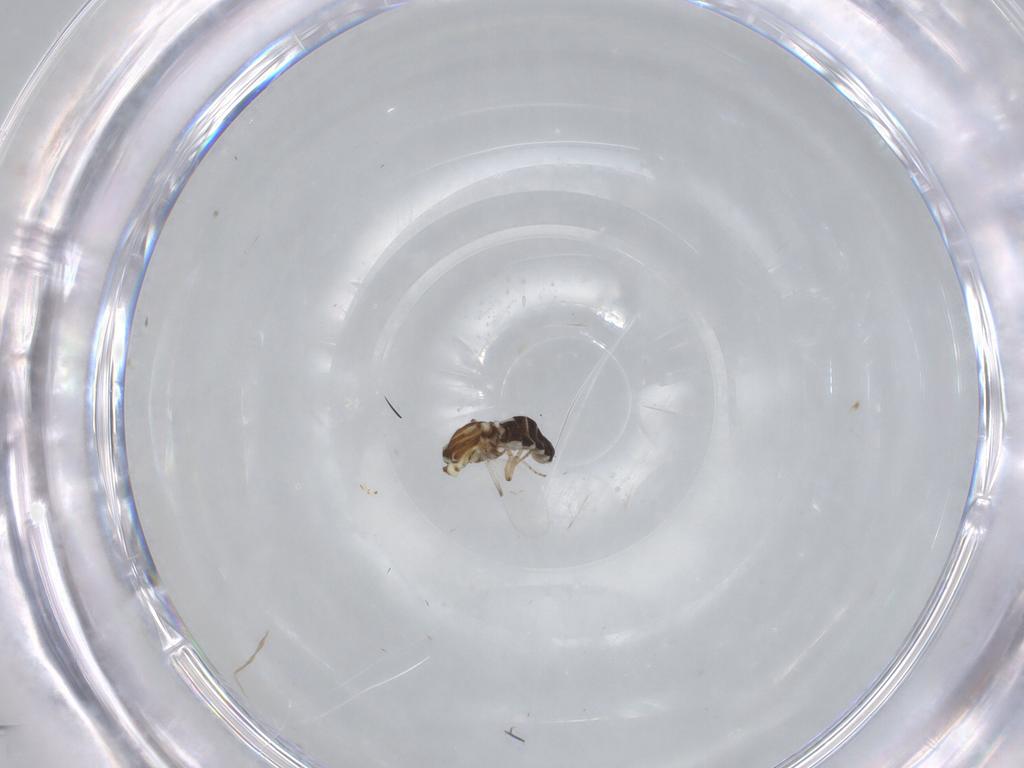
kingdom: Animalia
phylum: Arthropoda
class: Insecta
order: Diptera
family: Ceratopogonidae
